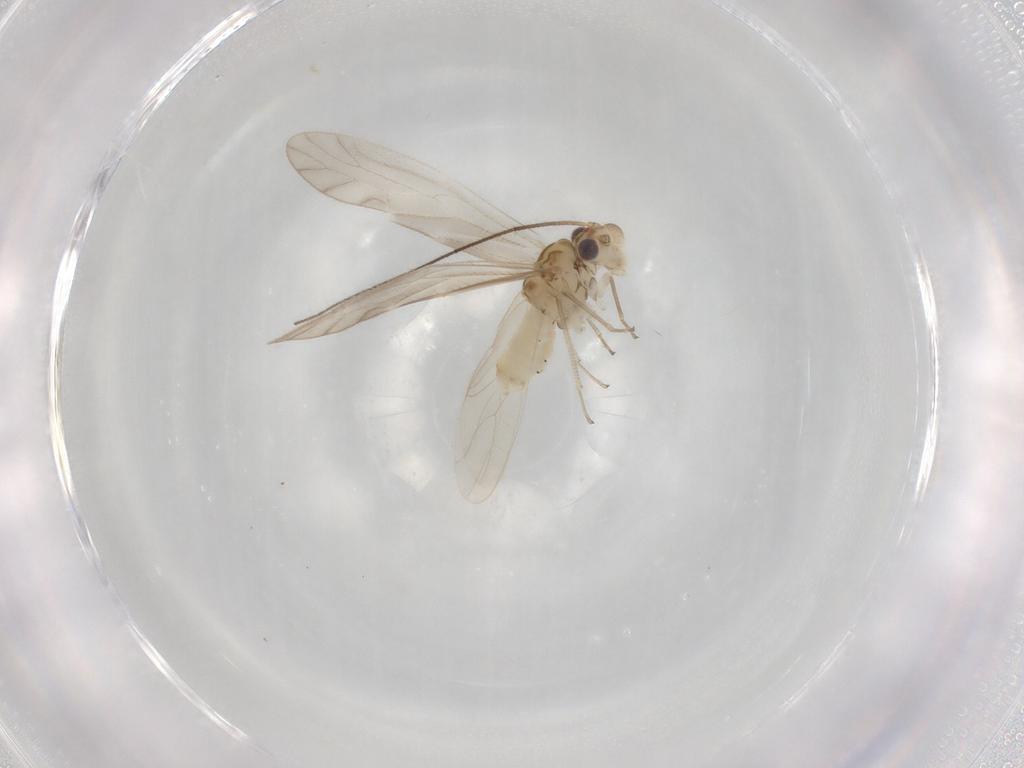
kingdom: Animalia
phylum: Arthropoda
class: Insecta
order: Psocodea
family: Caeciliusidae
